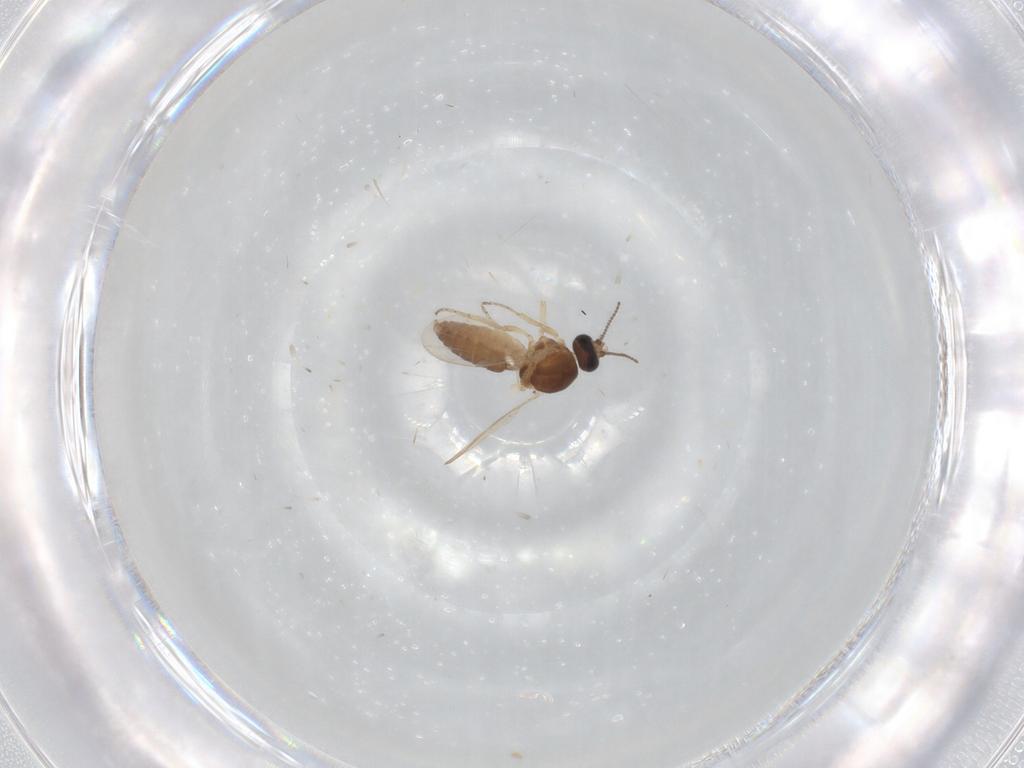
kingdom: Animalia
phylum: Arthropoda
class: Insecta
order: Diptera
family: Ceratopogonidae
